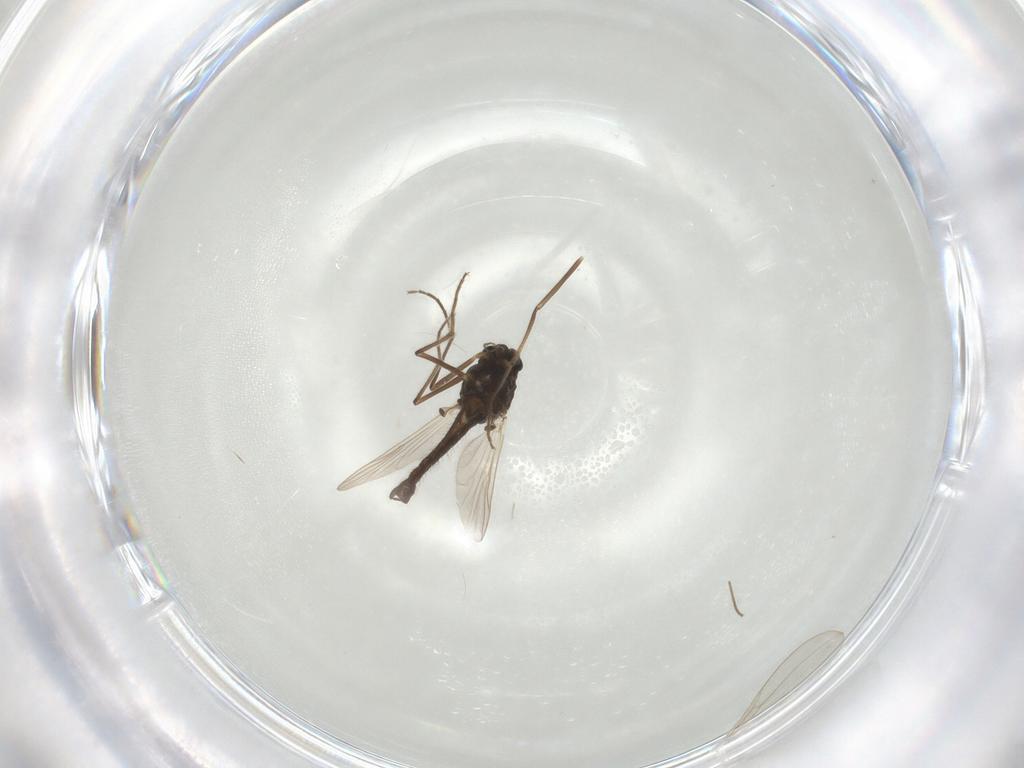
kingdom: Animalia
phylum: Arthropoda
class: Insecta
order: Diptera
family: Chironomidae
